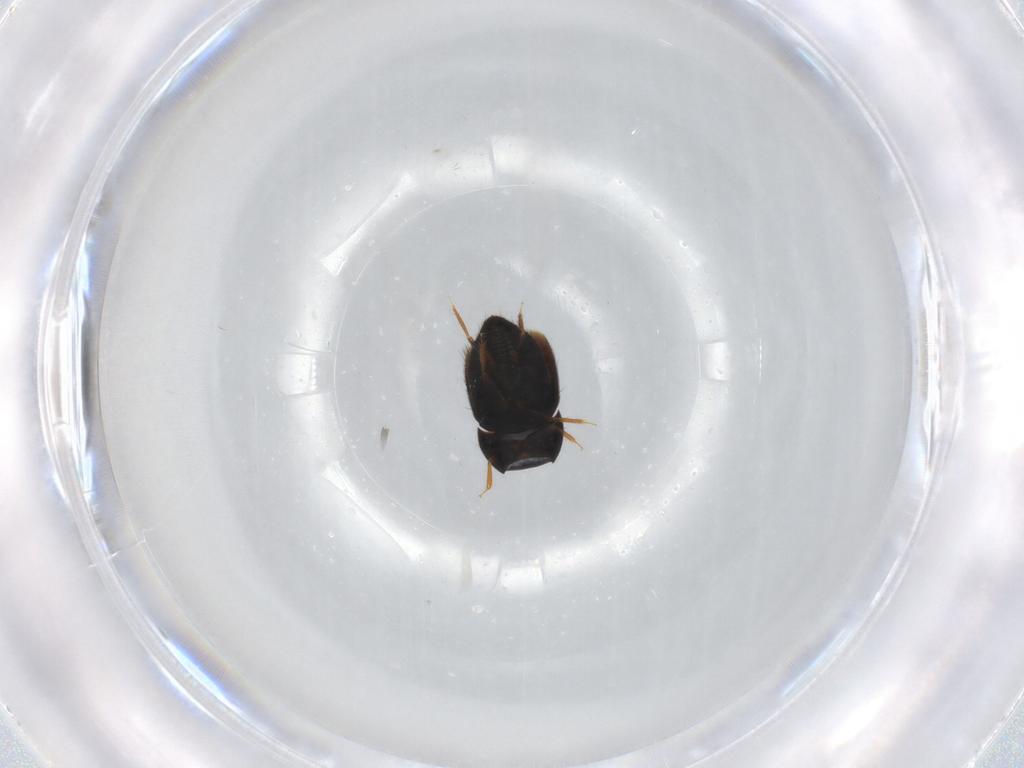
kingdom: Animalia
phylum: Arthropoda
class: Insecta
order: Coleoptera
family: Ptiliidae
